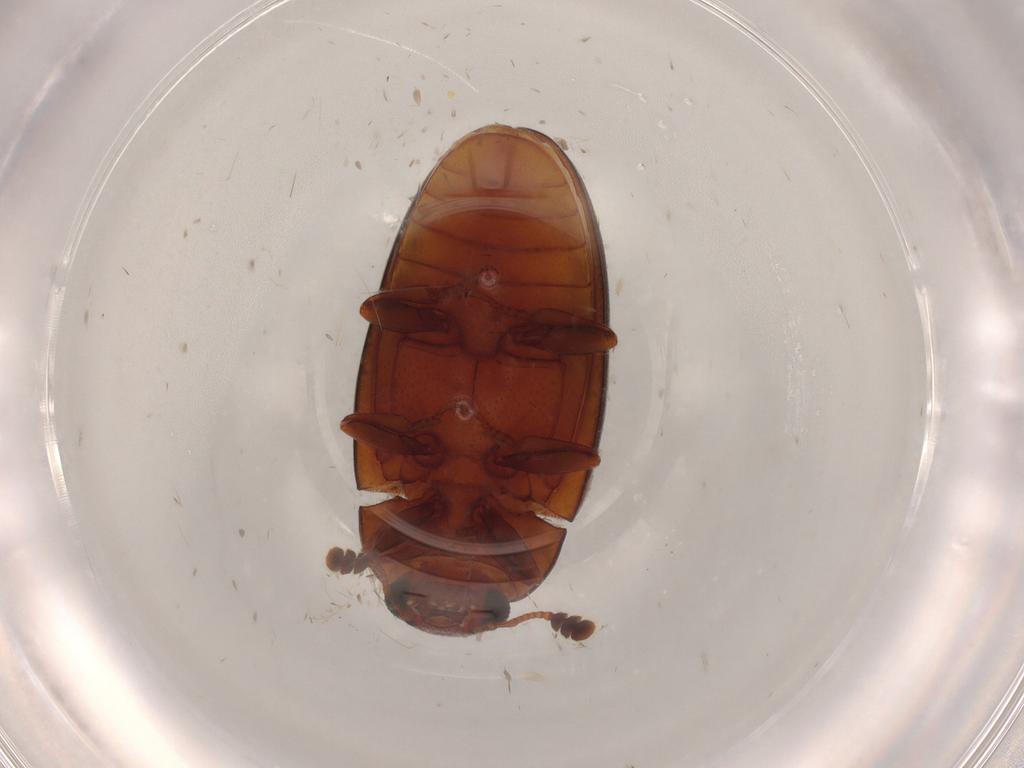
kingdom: Animalia
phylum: Arthropoda
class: Insecta
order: Coleoptera
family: Erotylidae
